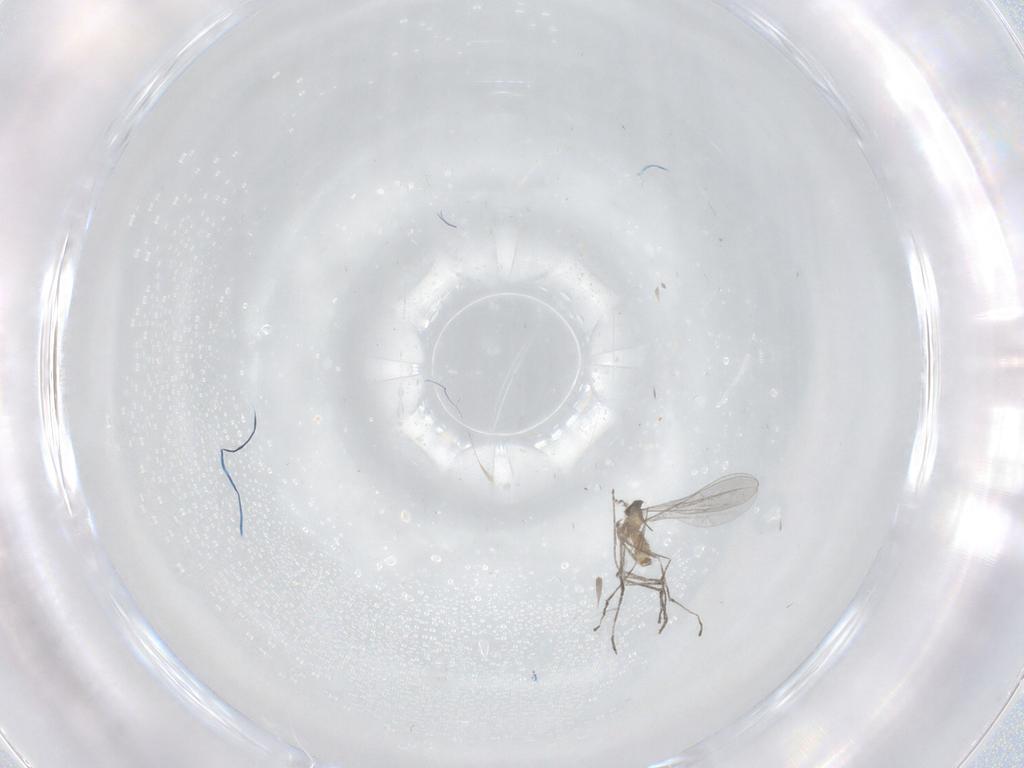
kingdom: Animalia
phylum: Arthropoda
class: Insecta
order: Diptera
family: Cecidomyiidae
